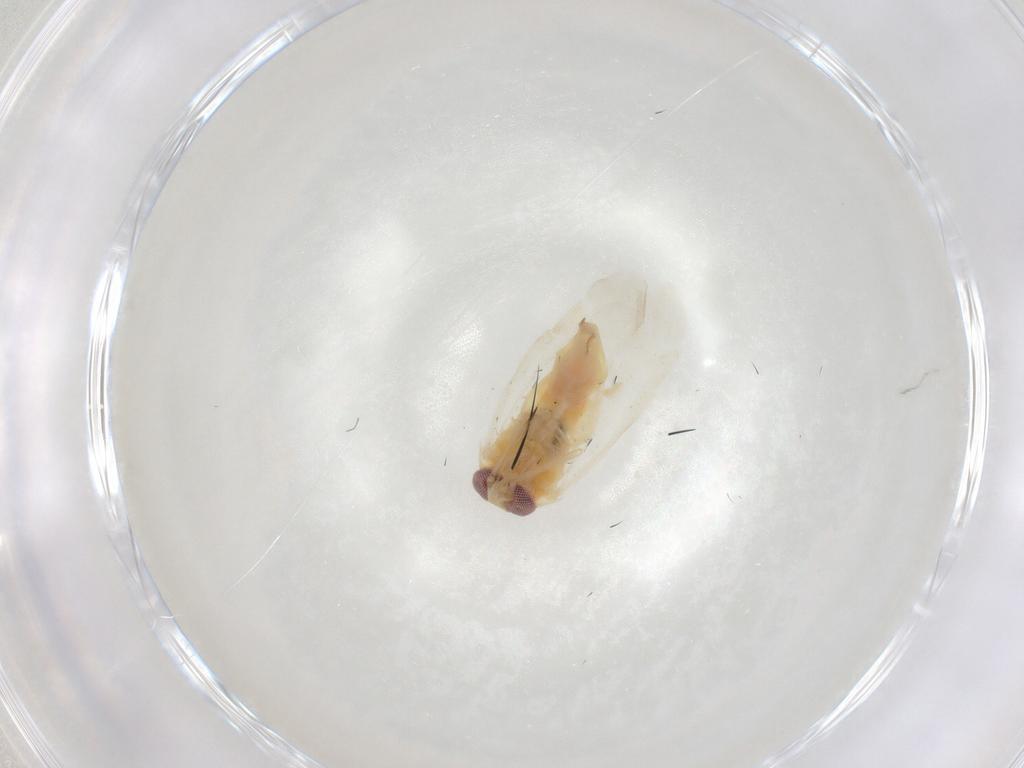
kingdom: Animalia
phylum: Arthropoda
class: Insecta
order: Hemiptera
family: Miridae
